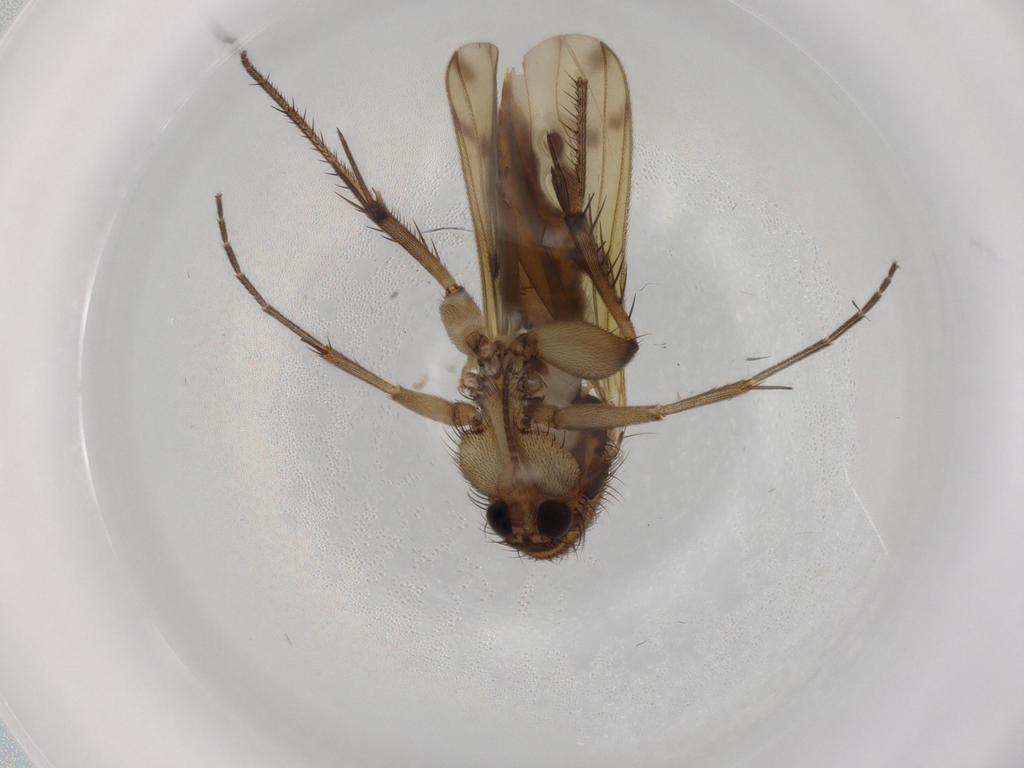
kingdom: Animalia
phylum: Arthropoda
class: Insecta
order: Diptera
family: Mycetophilidae
